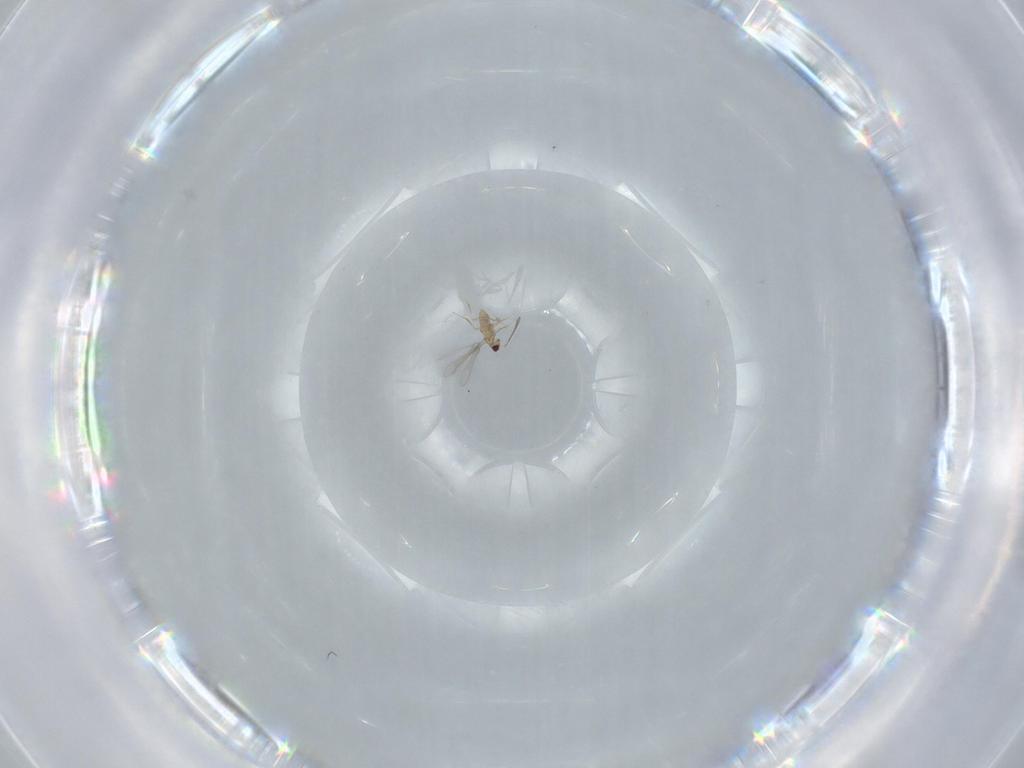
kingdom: Animalia
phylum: Arthropoda
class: Insecta
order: Hymenoptera
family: Mymaridae
